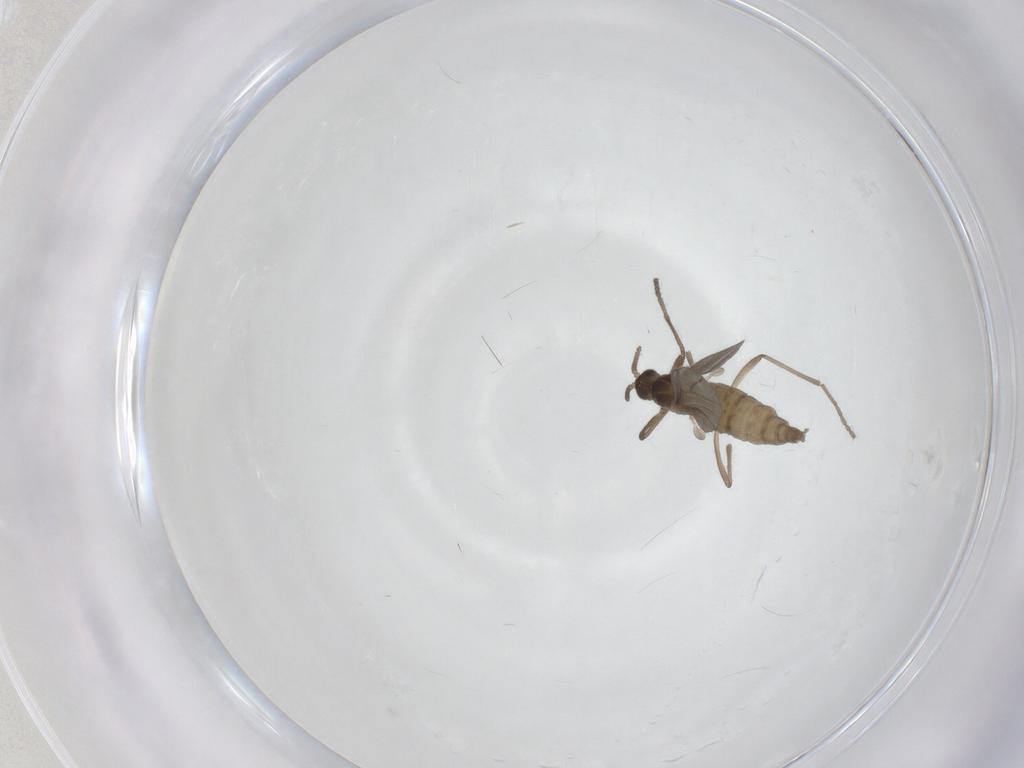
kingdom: Animalia
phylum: Arthropoda
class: Insecta
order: Diptera
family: Cecidomyiidae
